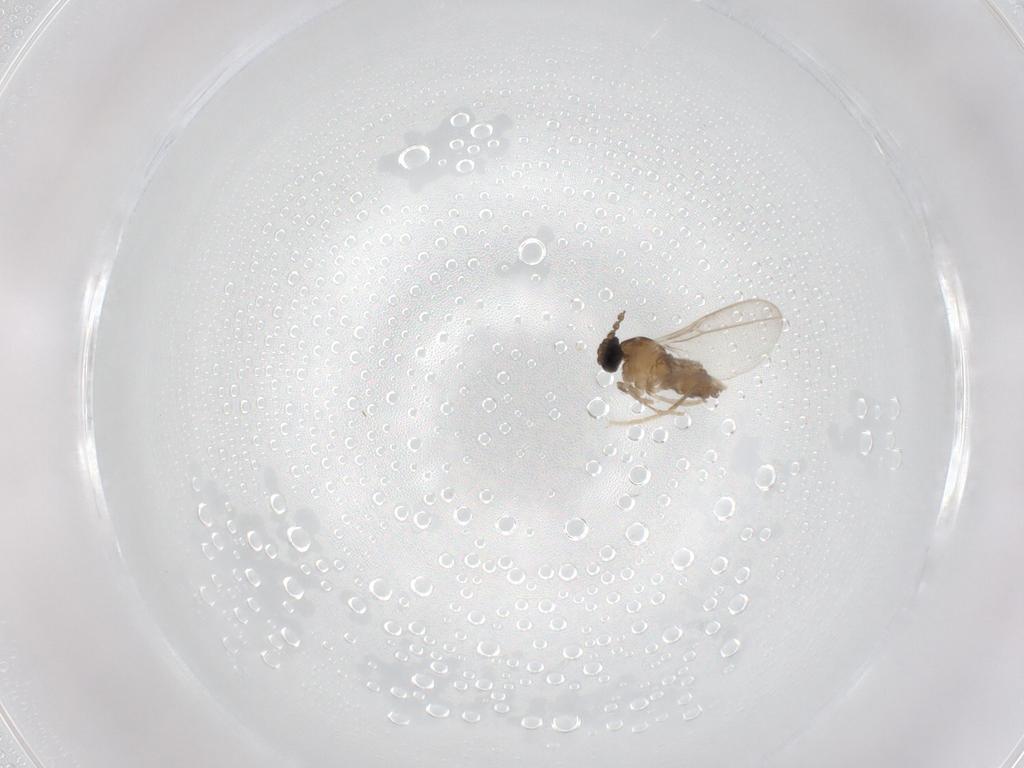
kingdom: Animalia
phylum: Arthropoda
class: Insecta
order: Diptera
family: Cecidomyiidae
